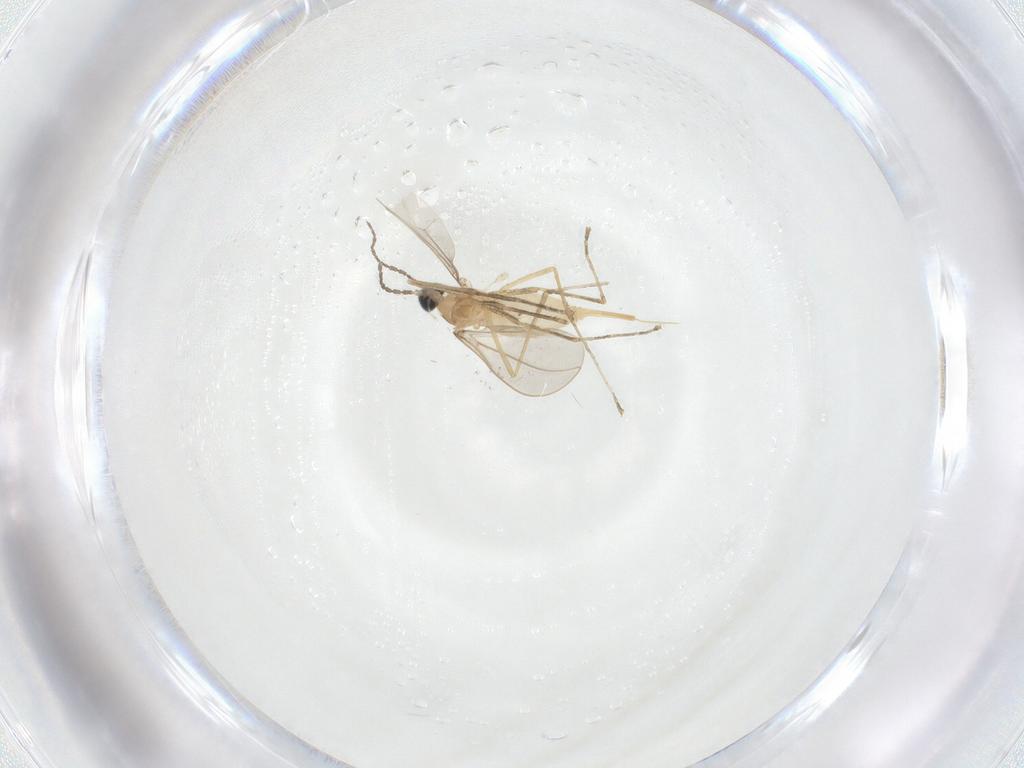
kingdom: Animalia
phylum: Arthropoda
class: Insecta
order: Diptera
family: Cecidomyiidae
